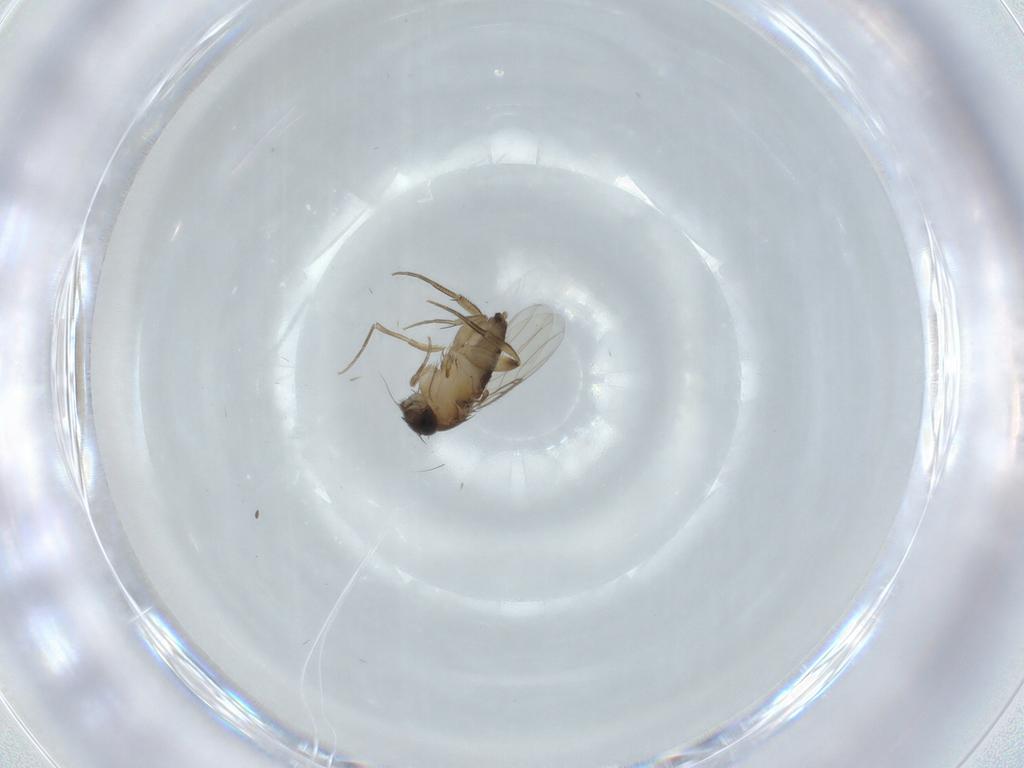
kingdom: Animalia
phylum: Arthropoda
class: Insecta
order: Diptera
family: Phoridae
